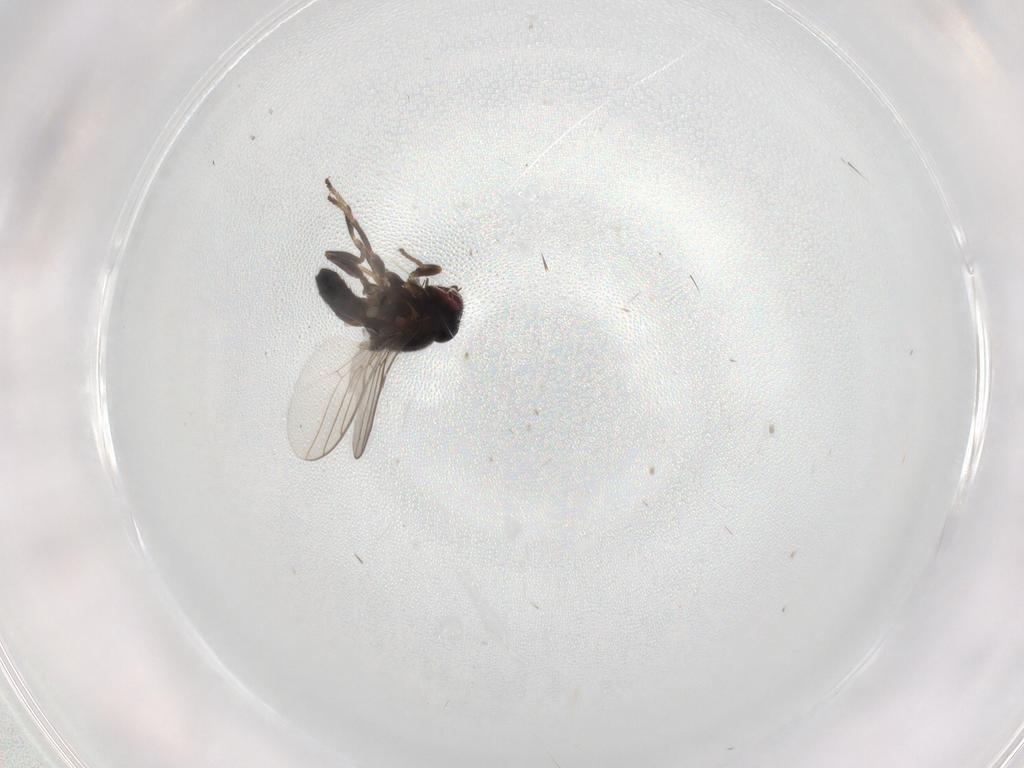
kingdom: Animalia
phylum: Arthropoda
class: Insecta
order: Diptera
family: Chloropidae
